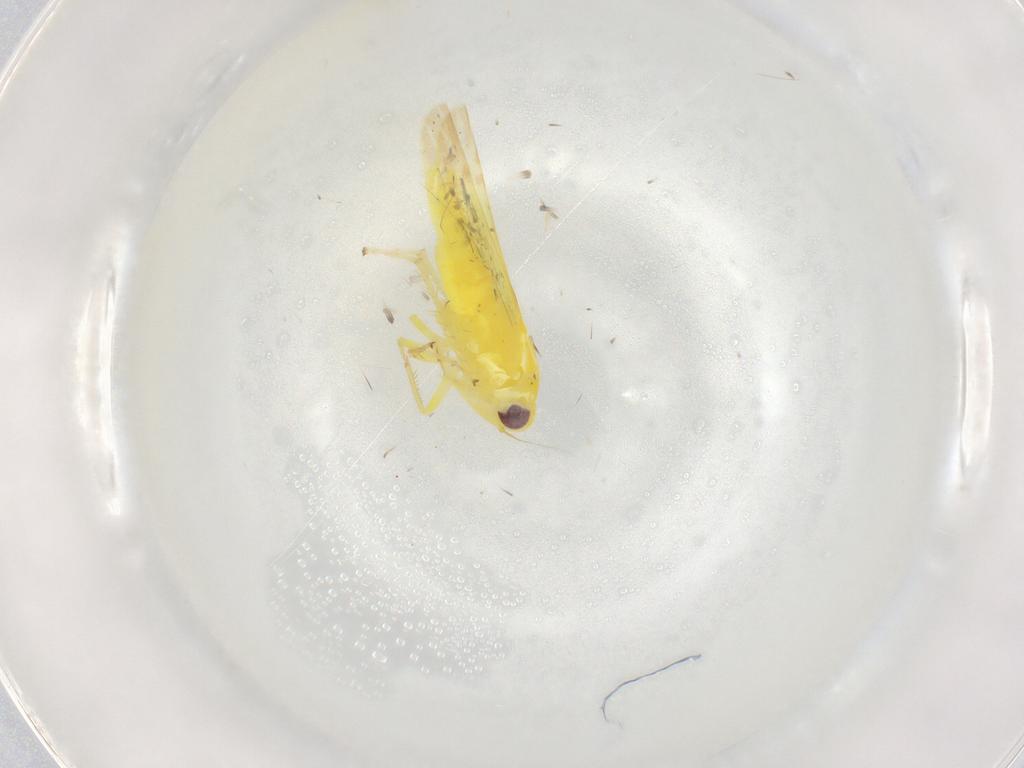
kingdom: Animalia
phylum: Arthropoda
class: Insecta
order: Hemiptera
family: Cicadellidae
